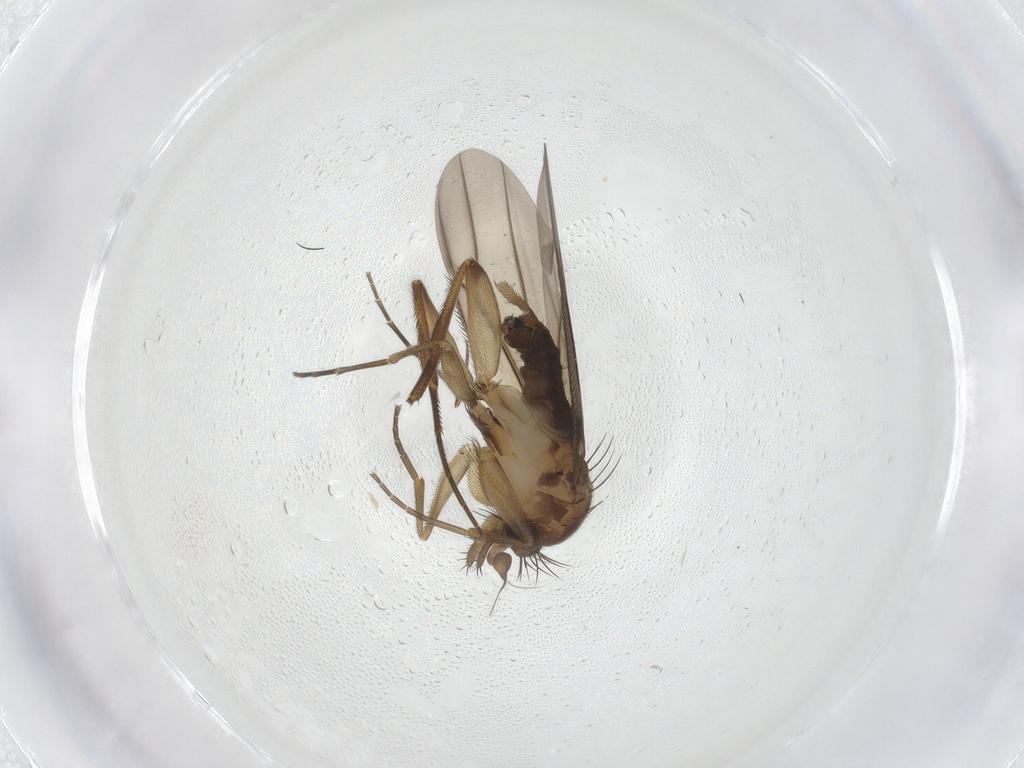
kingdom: Animalia
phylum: Arthropoda
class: Insecta
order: Diptera
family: Phoridae
